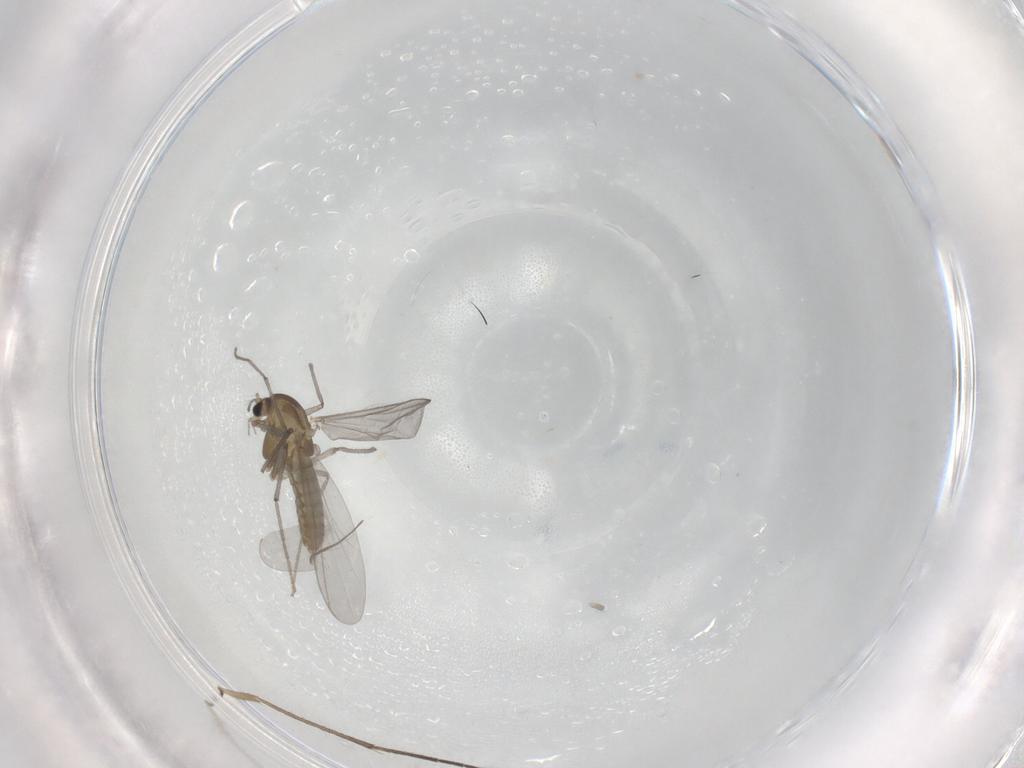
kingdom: Animalia
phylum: Arthropoda
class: Insecta
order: Diptera
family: Chironomidae
